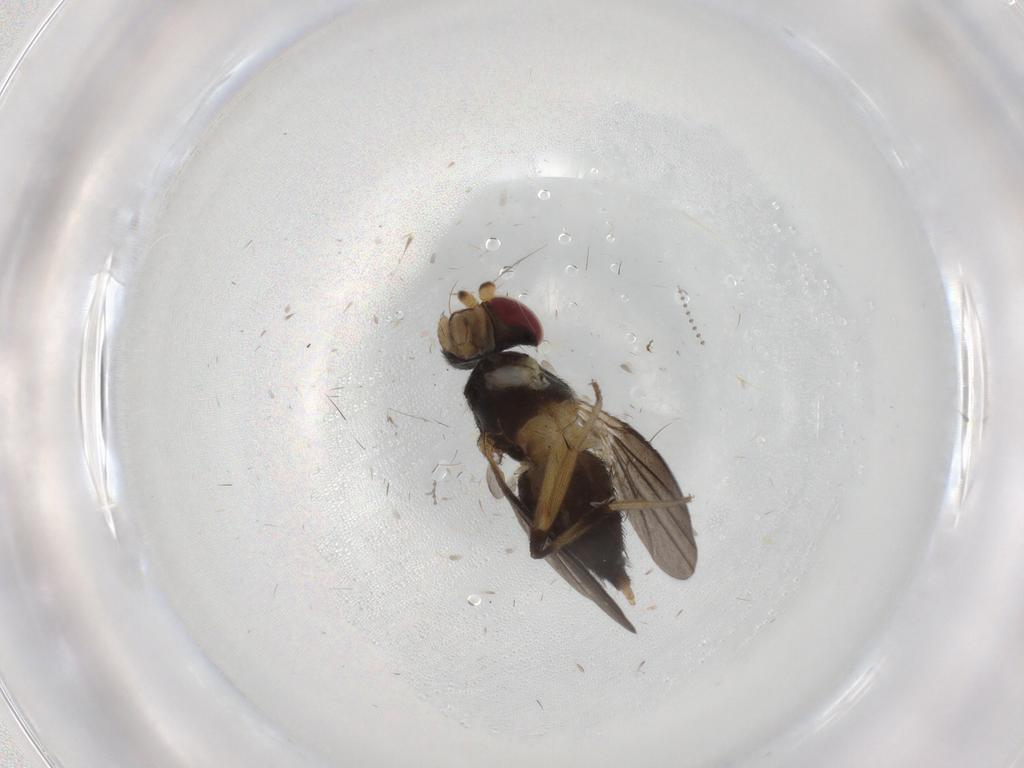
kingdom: Animalia
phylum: Arthropoda
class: Insecta
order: Diptera
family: Clusiidae
